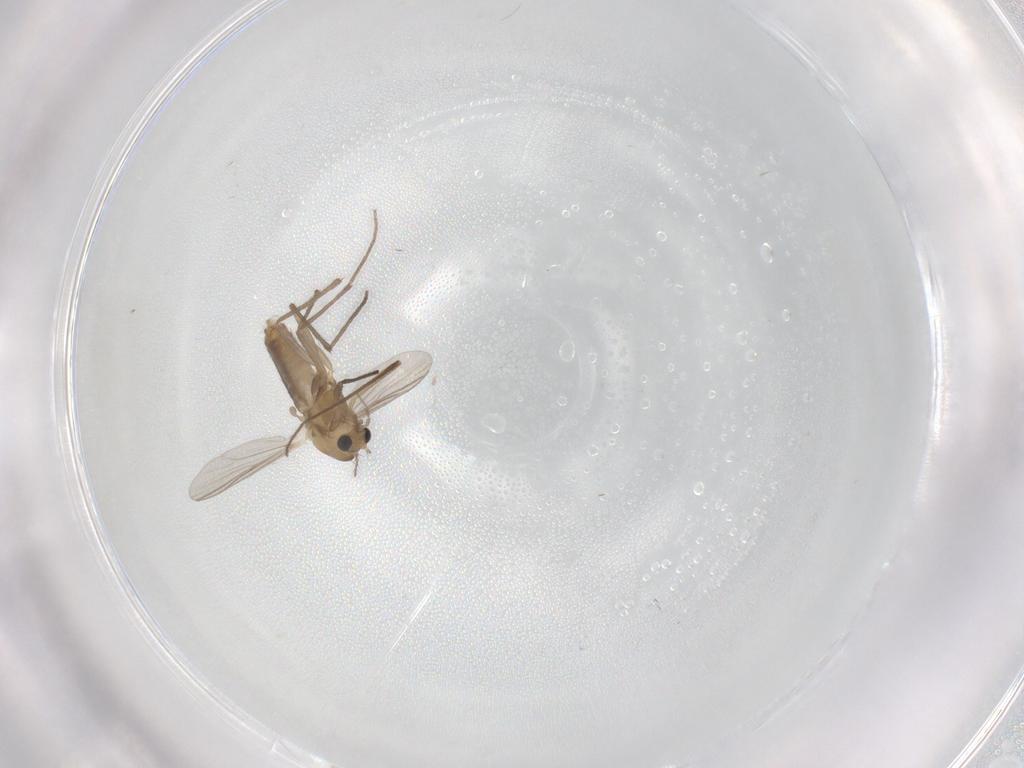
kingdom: Animalia
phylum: Arthropoda
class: Insecta
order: Diptera
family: Chironomidae
